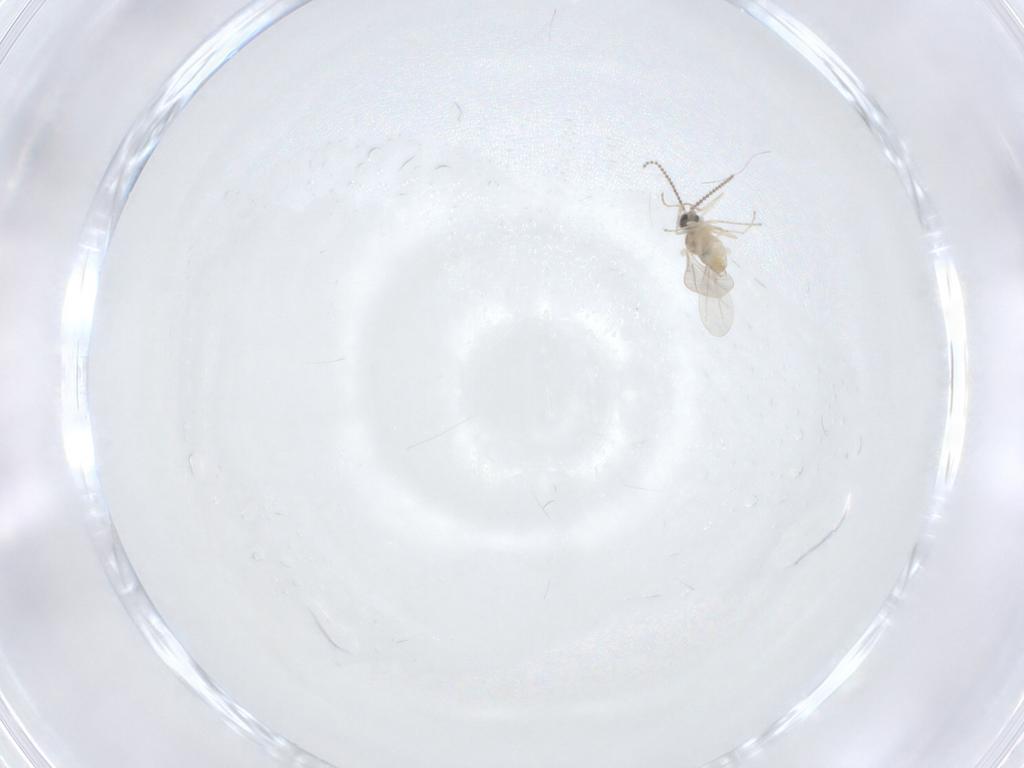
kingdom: Animalia
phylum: Arthropoda
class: Insecta
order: Diptera
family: Cecidomyiidae
